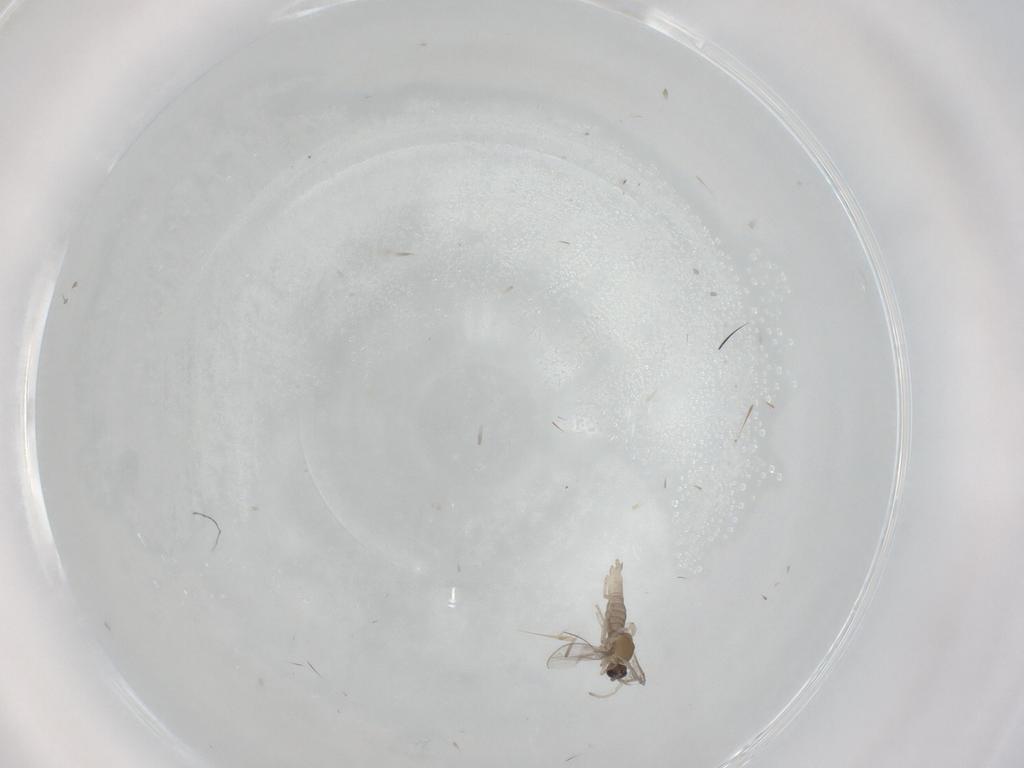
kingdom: Animalia
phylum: Arthropoda
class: Insecta
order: Diptera
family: Cecidomyiidae
